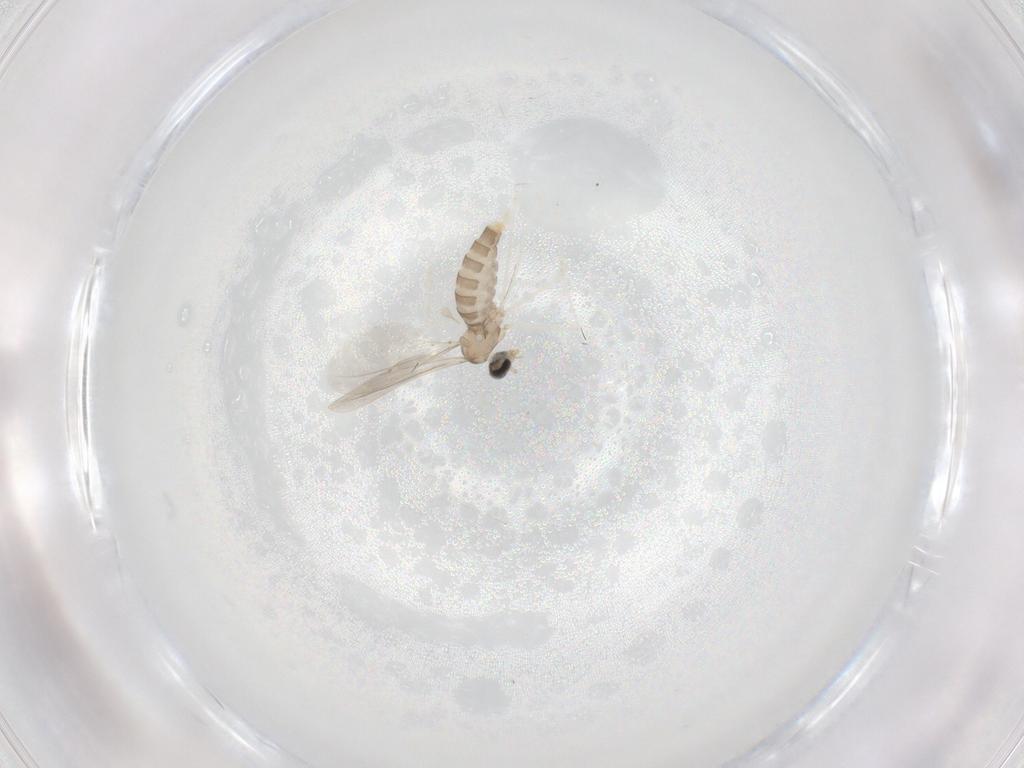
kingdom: Animalia
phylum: Arthropoda
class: Insecta
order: Diptera
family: Cecidomyiidae
